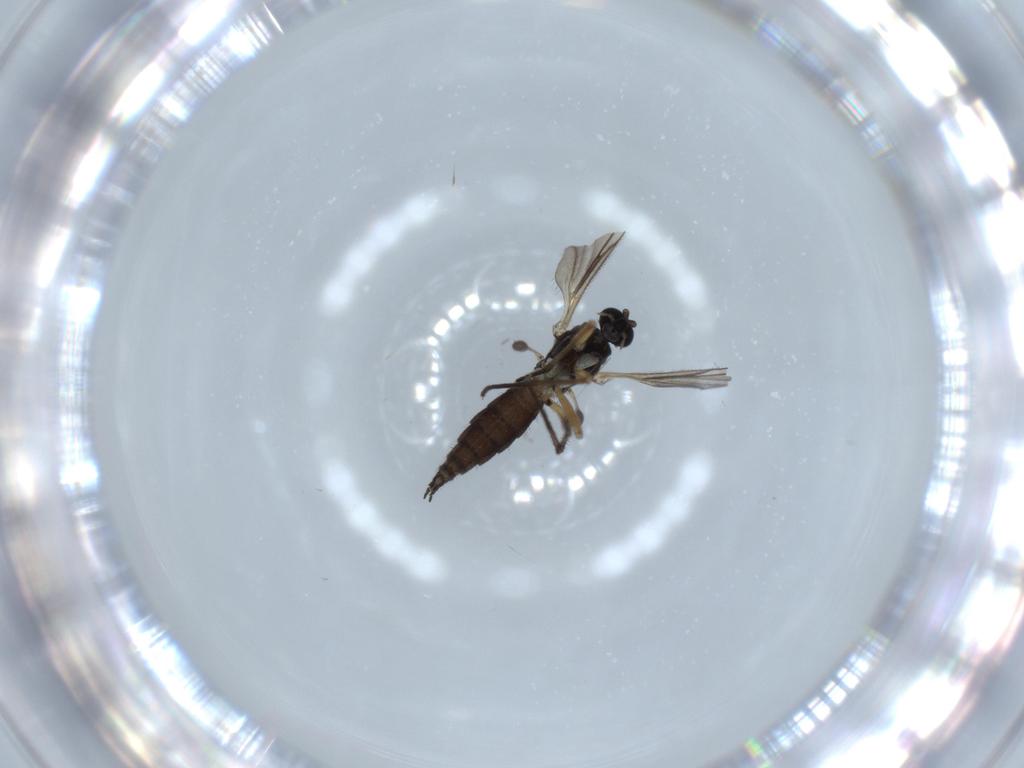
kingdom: Animalia
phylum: Arthropoda
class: Insecta
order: Diptera
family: Sciaridae
